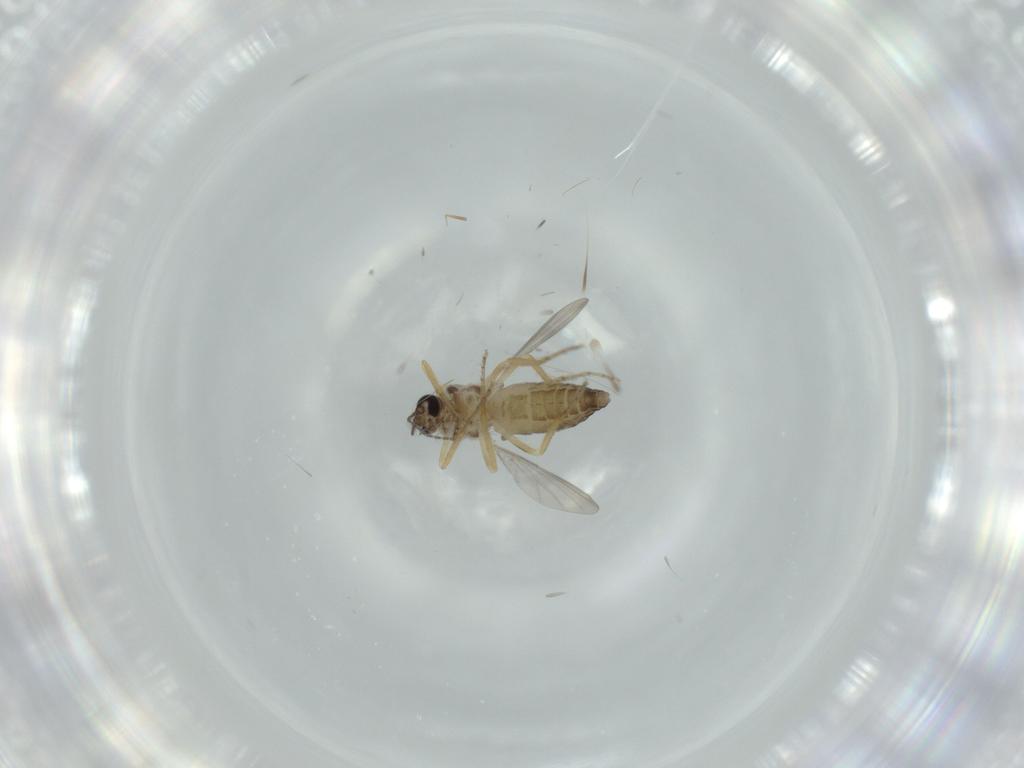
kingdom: Animalia
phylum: Arthropoda
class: Insecta
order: Diptera
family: Ceratopogonidae
